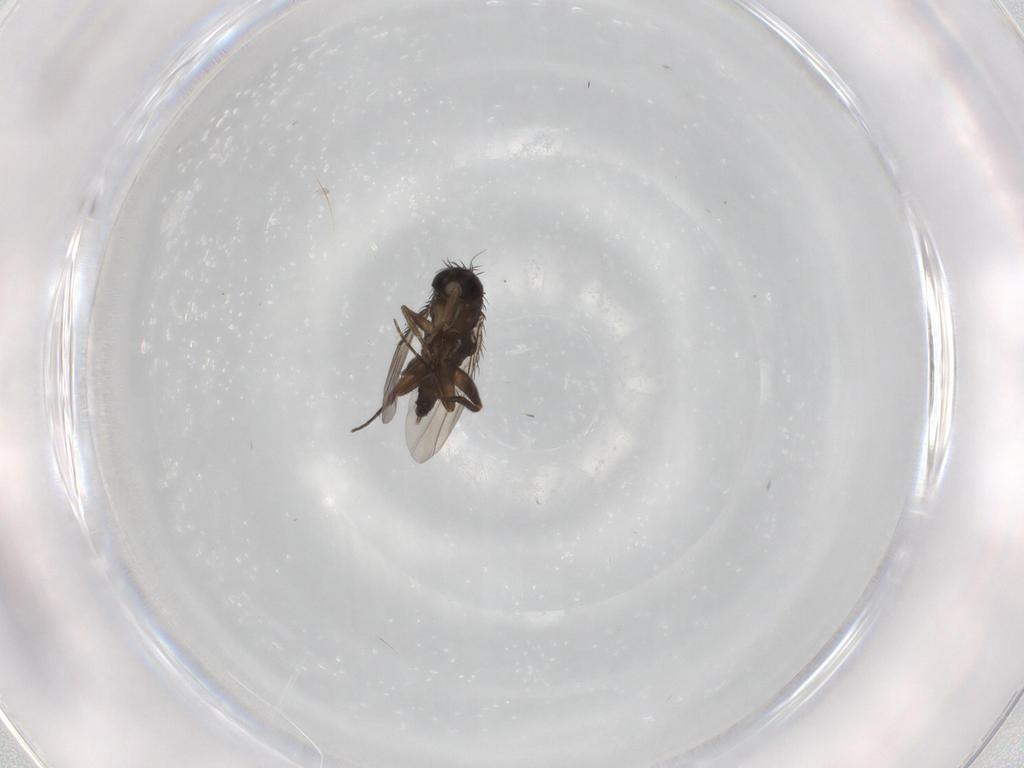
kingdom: Animalia
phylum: Arthropoda
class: Insecta
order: Diptera
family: Phoridae
